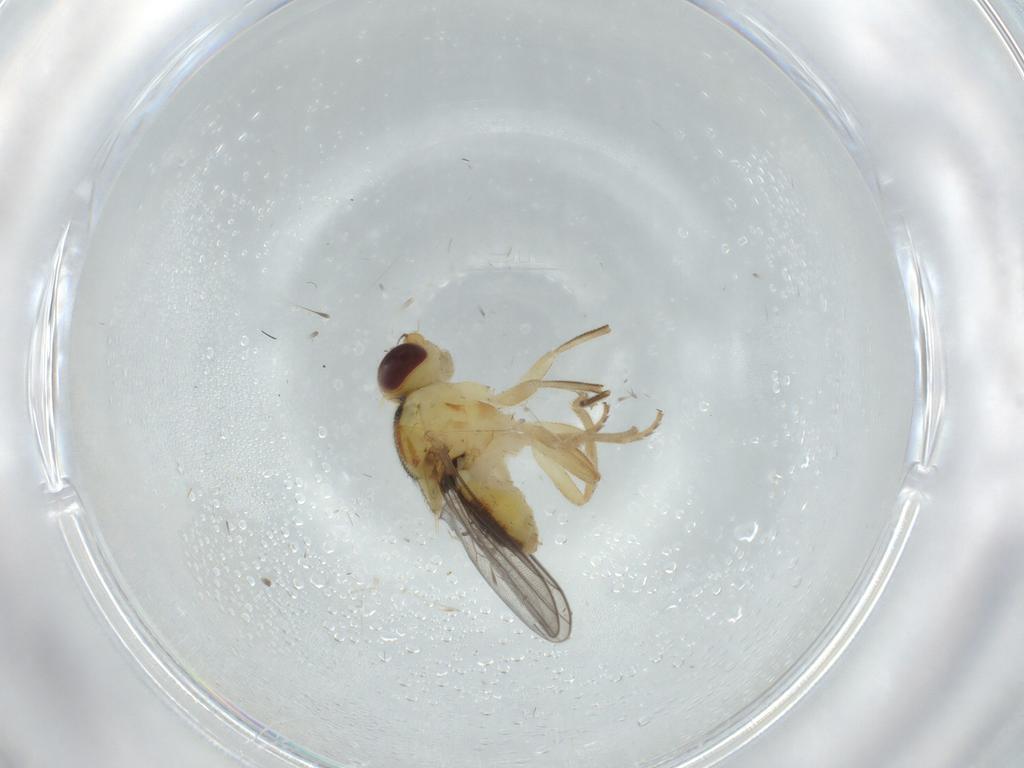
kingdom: Animalia
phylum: Arthropoda
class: Insecta
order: Diptera
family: Chloropidae
